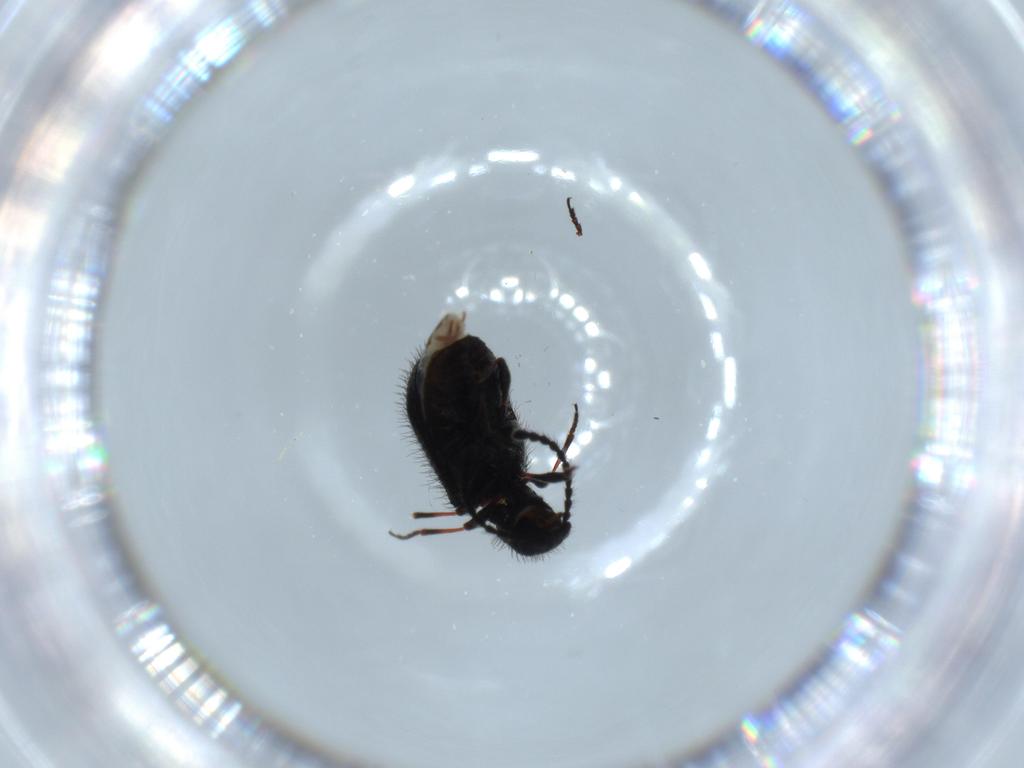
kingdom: Animalia
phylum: Arthropoda
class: Insecta
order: Coleoptera
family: Ptinidae
